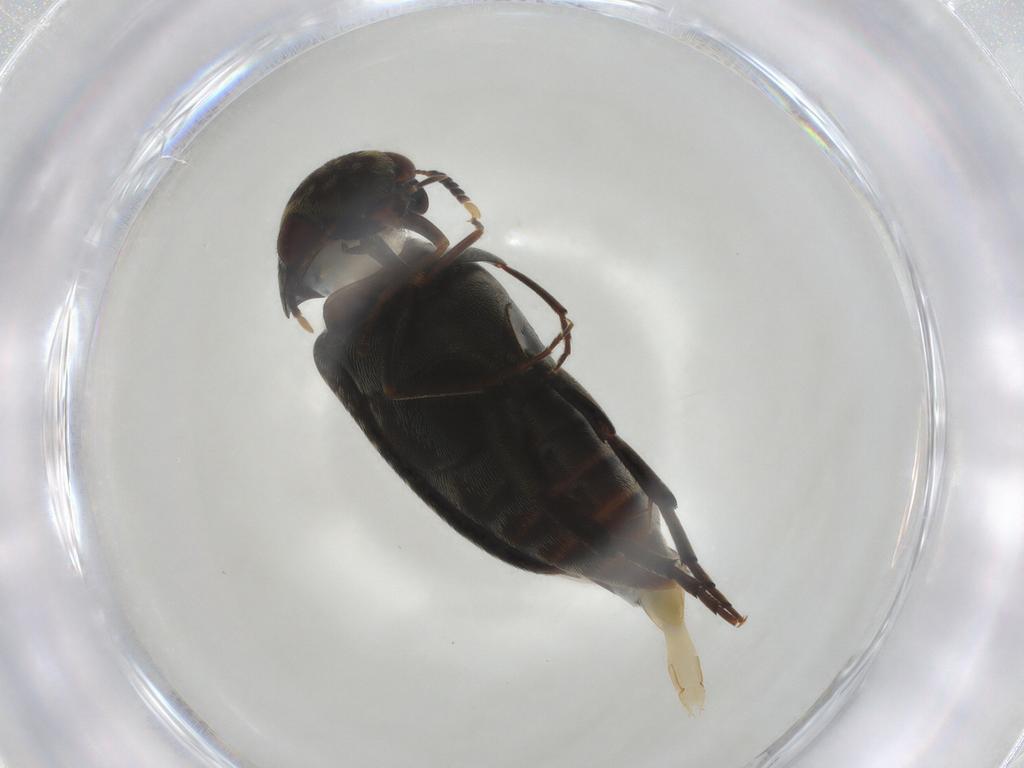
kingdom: Animalia
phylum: Arthropoda
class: Insecta
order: Coleoptera
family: Mordellidae
